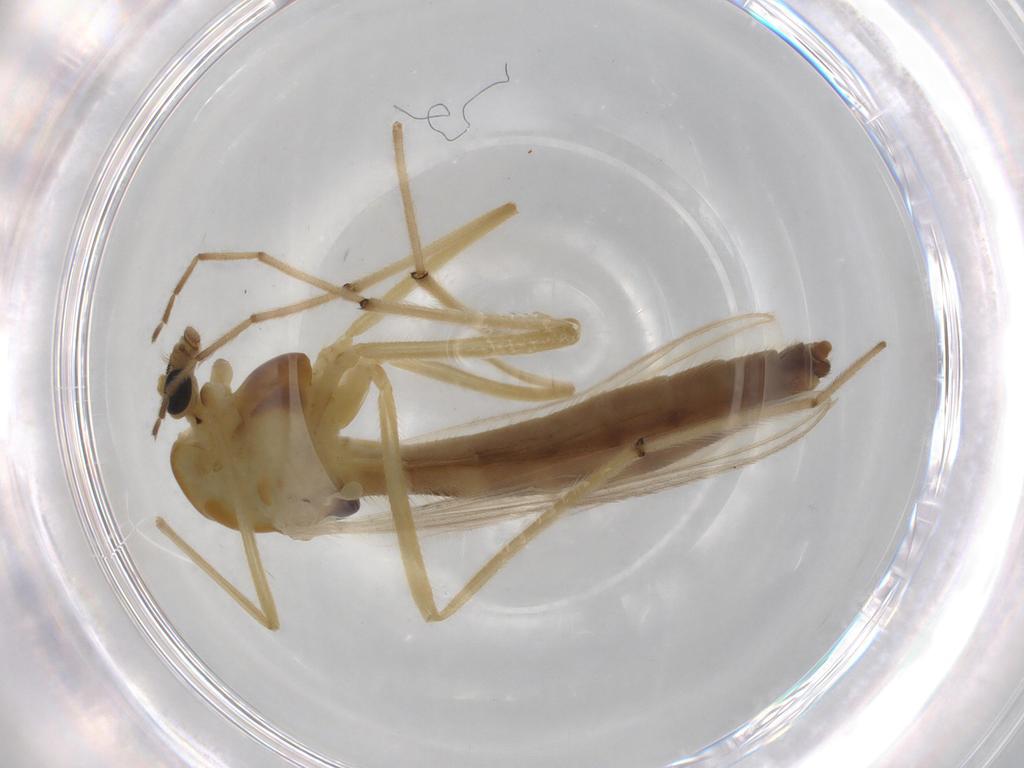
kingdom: Animalia
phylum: Arthropoda
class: Insecta
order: Diptera
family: Chironomidae
